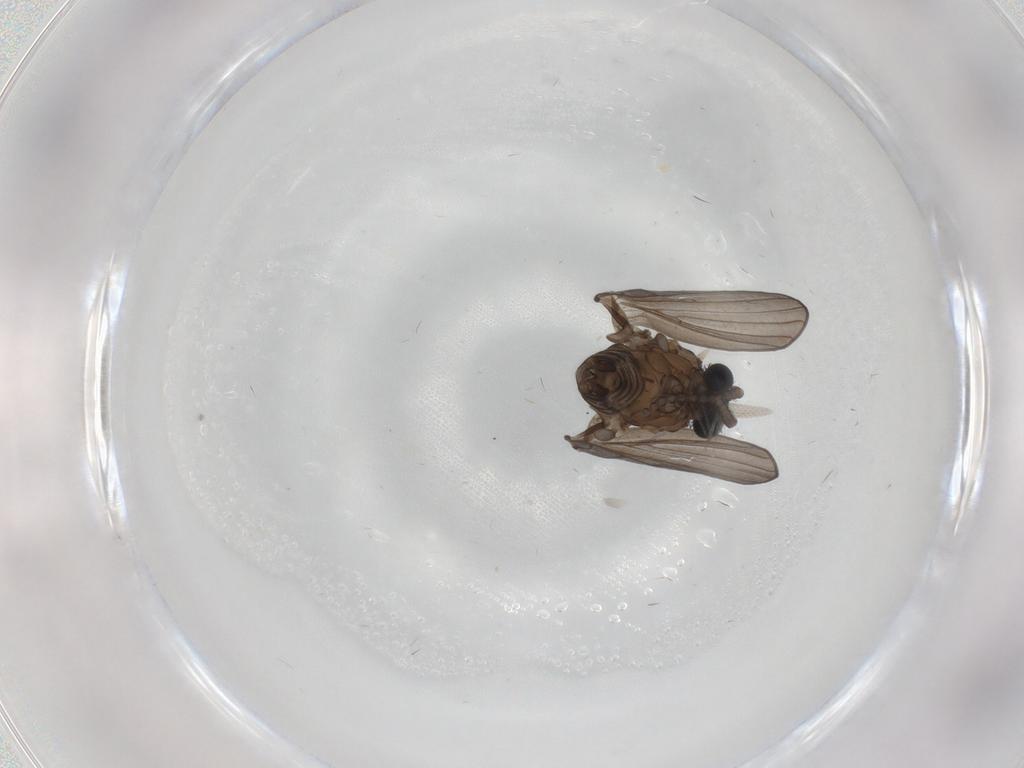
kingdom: Animalia
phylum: Arthropoda
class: Insecta
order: Diptera
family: Cecidomyiidae
